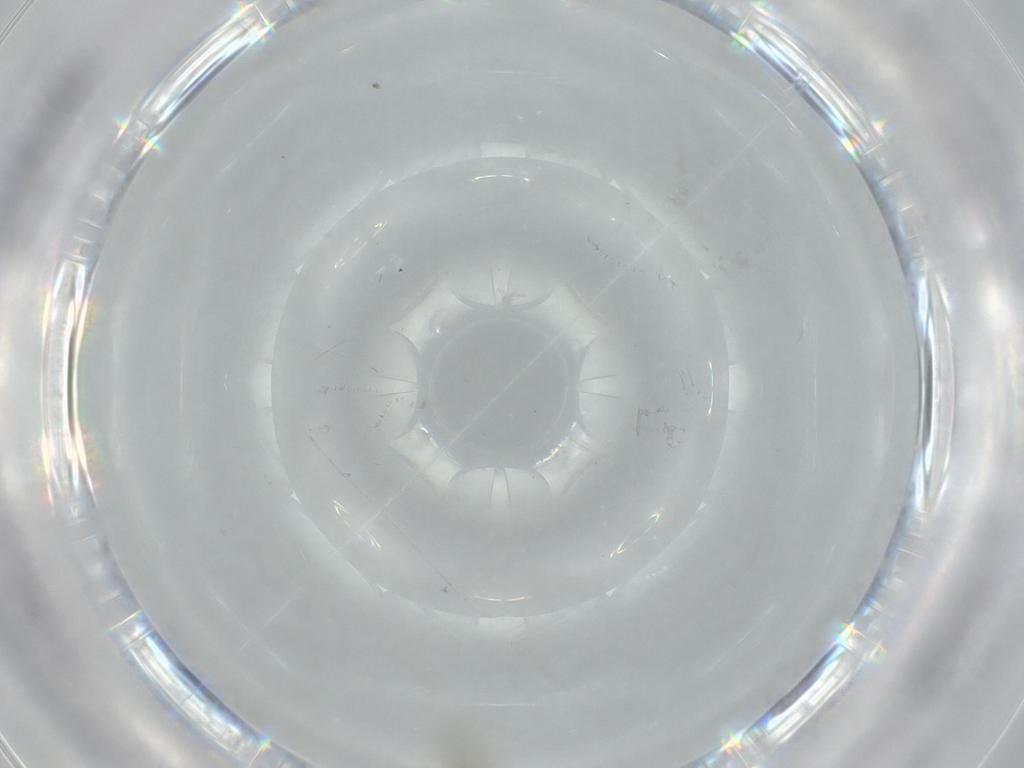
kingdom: Animalia
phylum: Arthropoda
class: Insecta
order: Hymenoptera
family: Scelionidae
